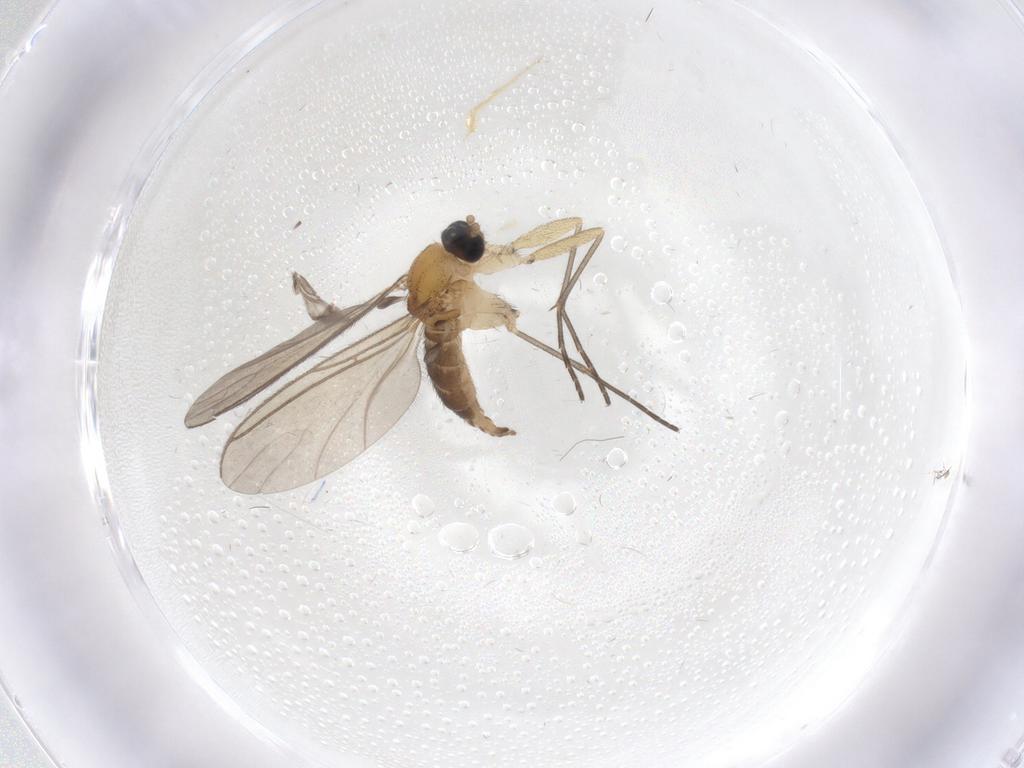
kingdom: Animalia
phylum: Arthropoda
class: Insecta
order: Diptera
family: Sciaridae
